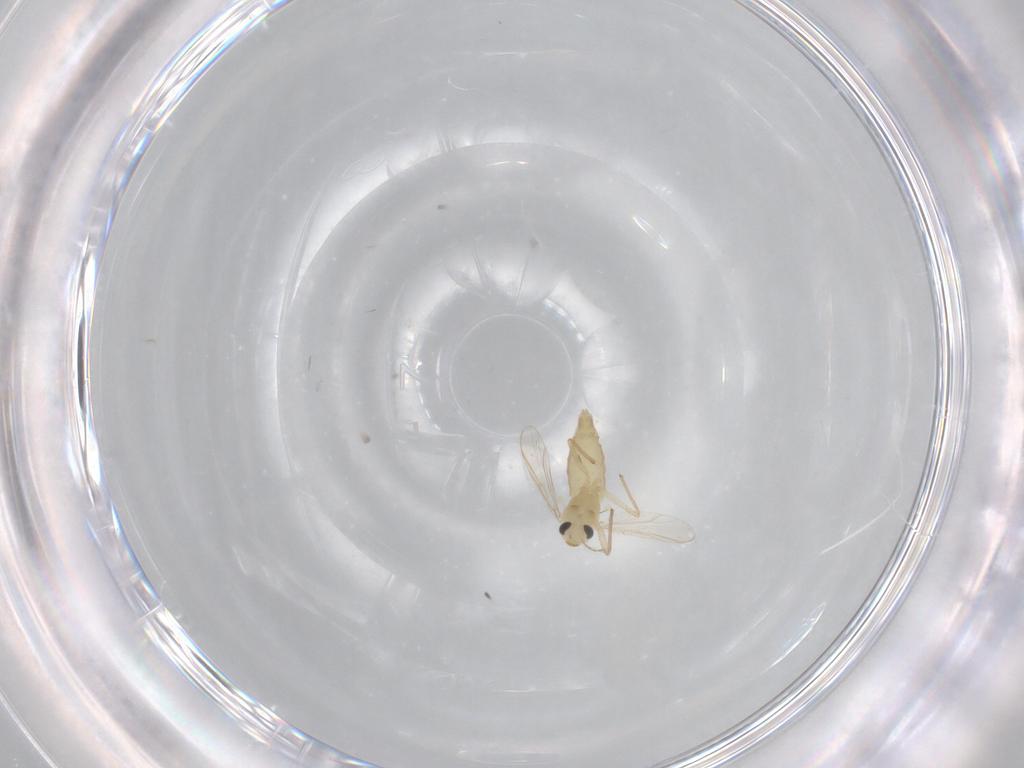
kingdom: Animalia
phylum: Arthropoda
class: Insecta
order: Diptera
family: Chironomidae
